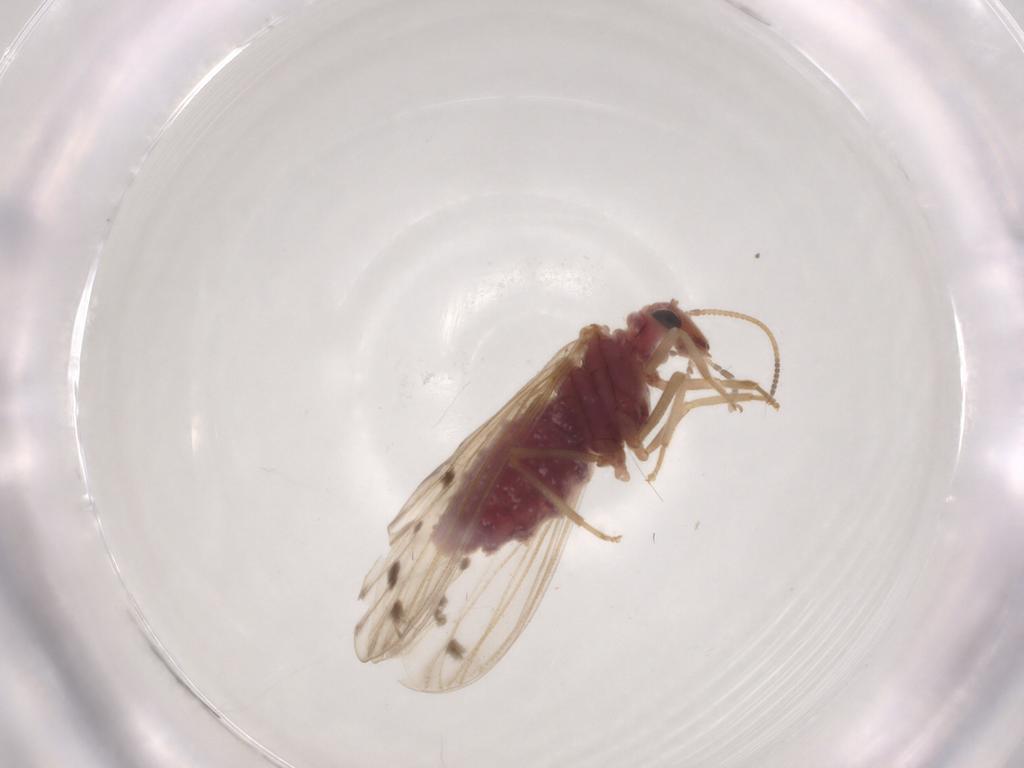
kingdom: Animalia
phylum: Arthropoda
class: Insecta
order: Neuroptera
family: Coniopterygidae
